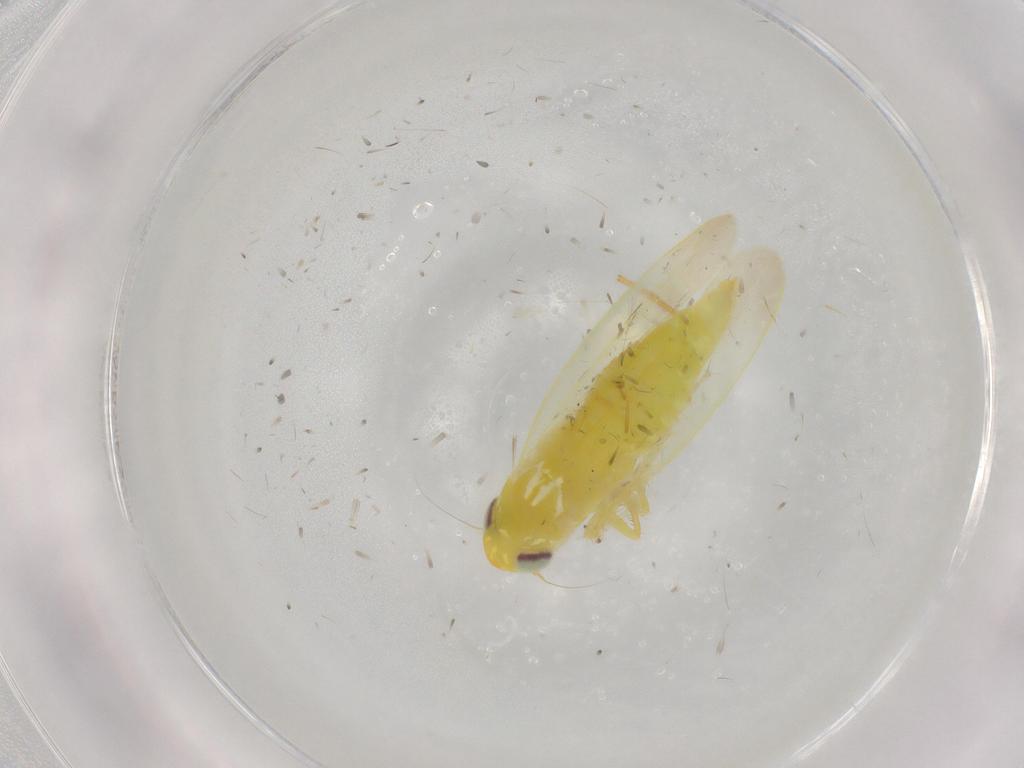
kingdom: Animalia
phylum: Arthropoda
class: Insecta
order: Hemiptera
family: Cicadellidae
